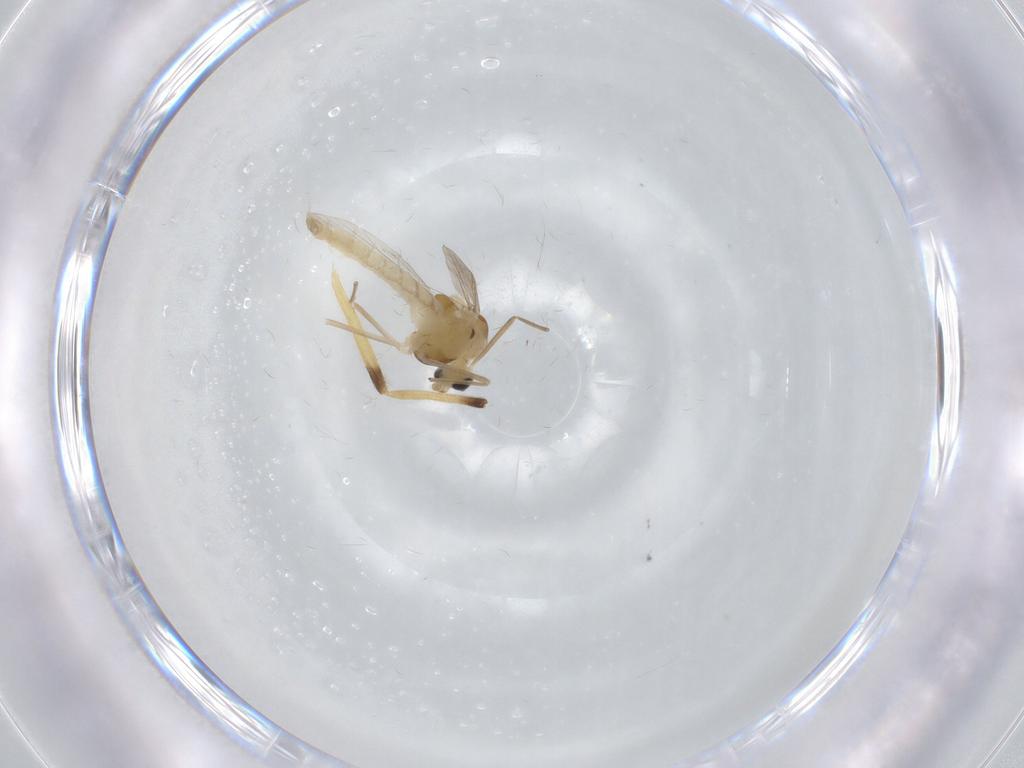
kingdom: Animalia
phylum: Arthropoda
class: Insecta
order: Diptera
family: Chironomidae
